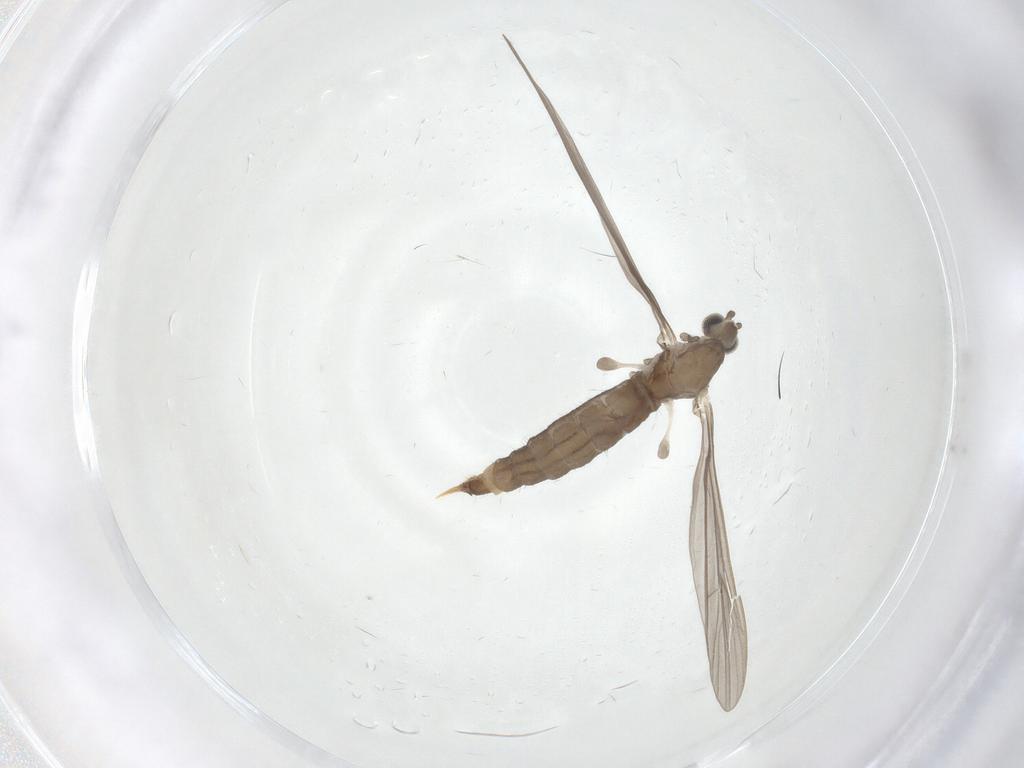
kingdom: Animalia
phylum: Arthropoda
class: Insecta
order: Diptera
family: Limoniidae
